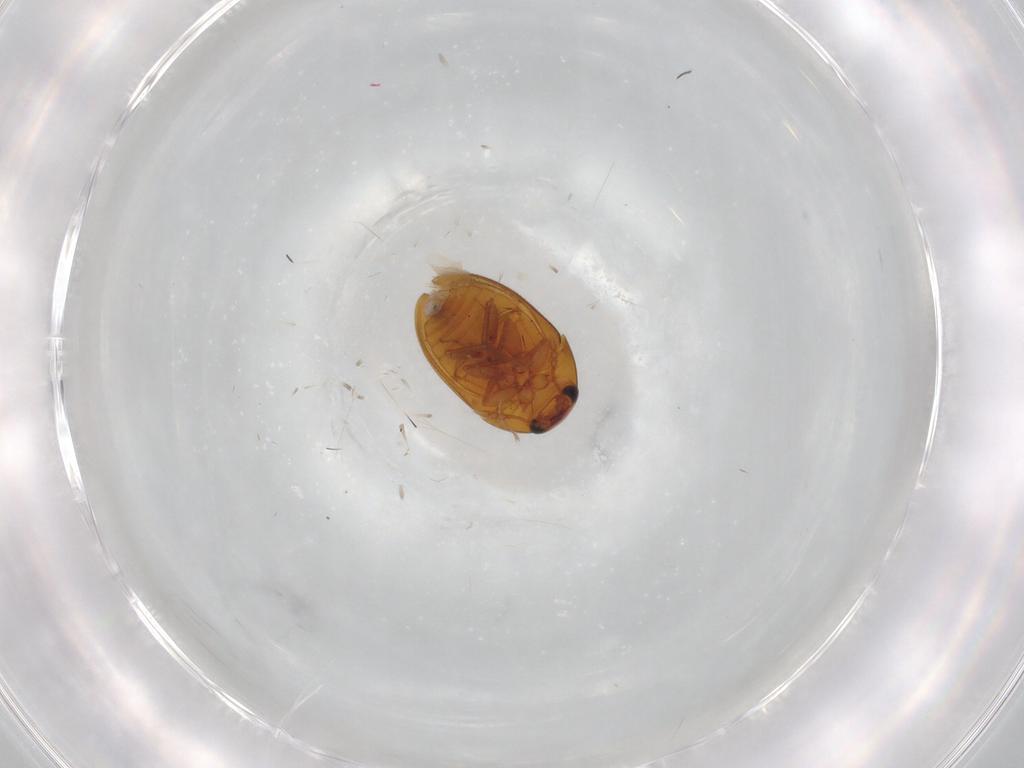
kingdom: Animalia
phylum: Arthropoda
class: Insecta
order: Coleoptera
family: Phalacridae
